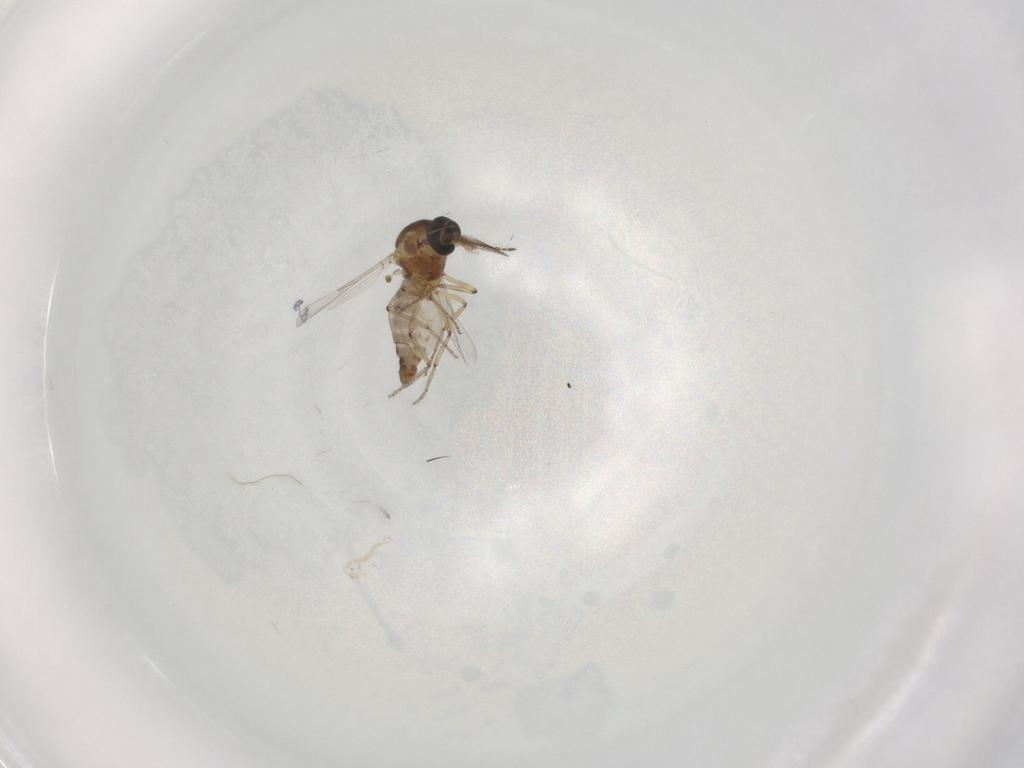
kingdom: Animalia
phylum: Arthropoda
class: Insecta
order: Diptera
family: Ceratopogonidae
